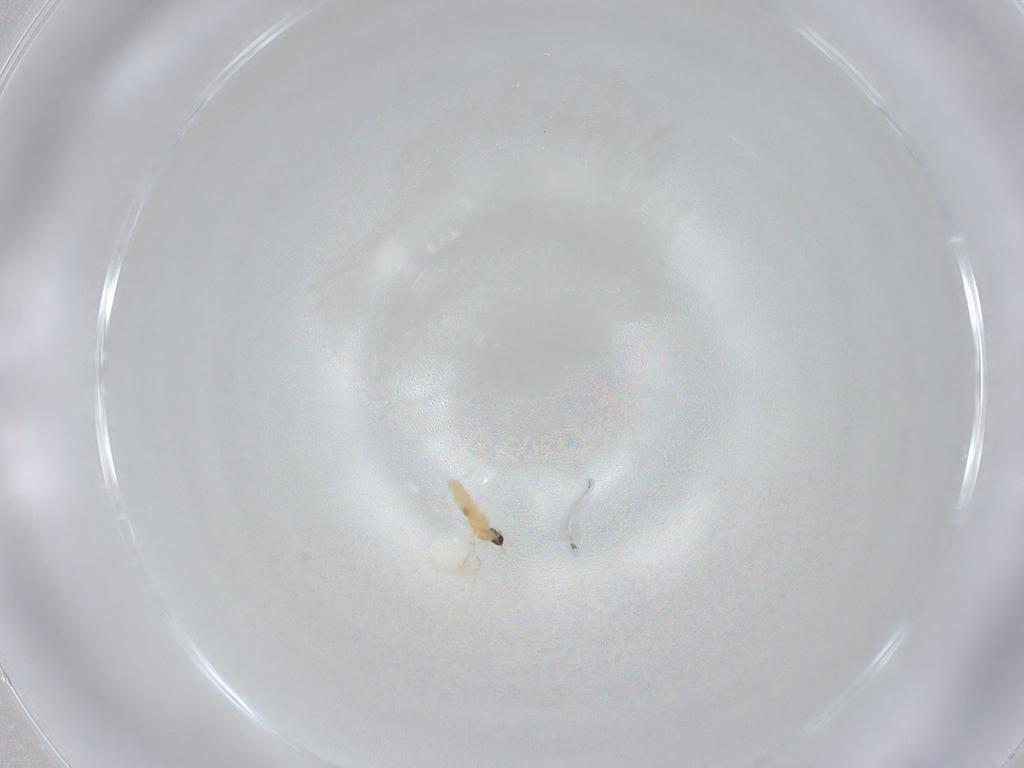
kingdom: Animalia
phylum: Arthropoda
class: Insecta
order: Diptera
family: Cecidomyiidae
